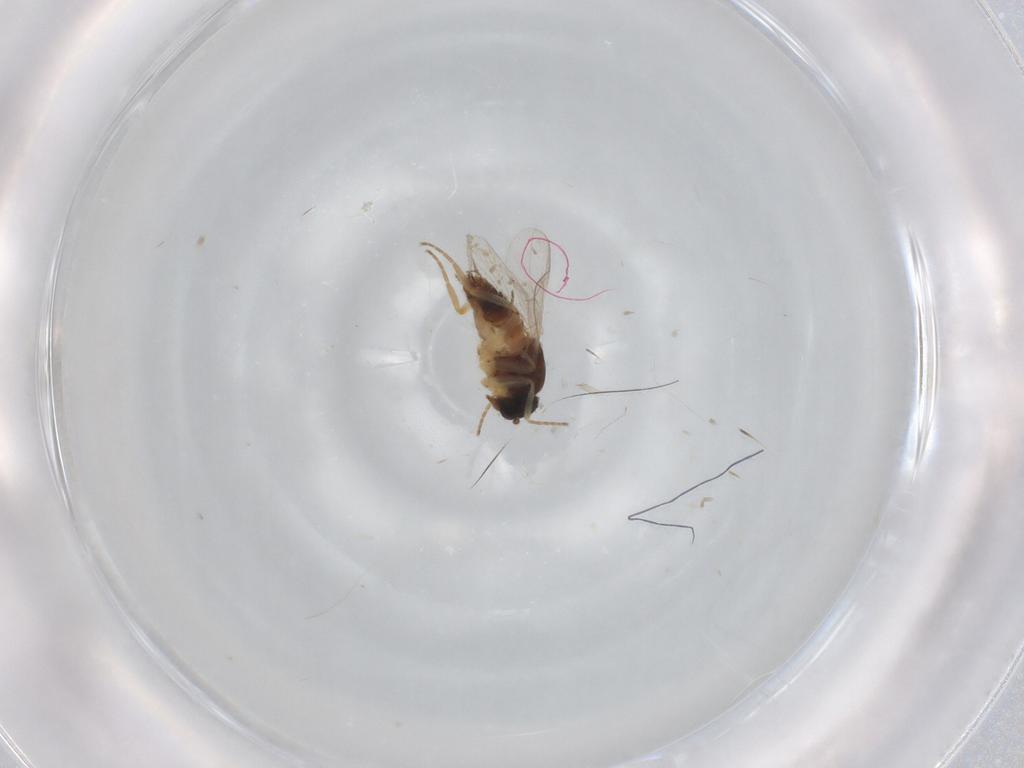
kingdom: Animalia
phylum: Arthropoda
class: Insecta
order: Diptera
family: Hybotidae
